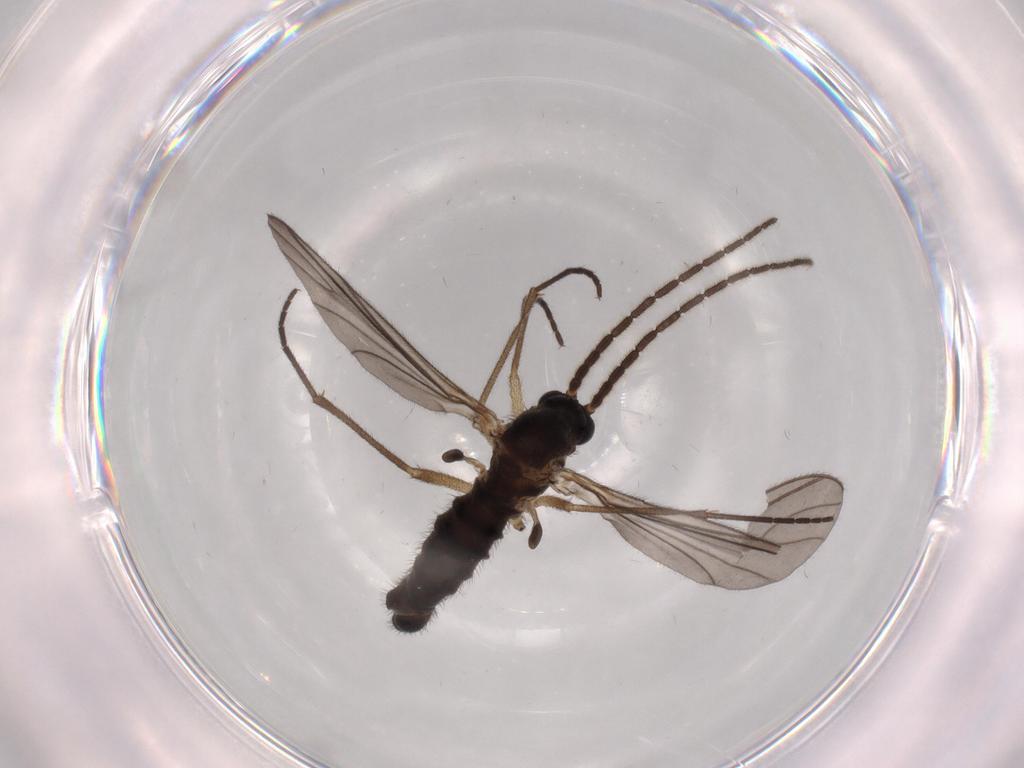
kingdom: Animalia
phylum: Arthropoda
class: Insecta
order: Diptera
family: Sciaridae
